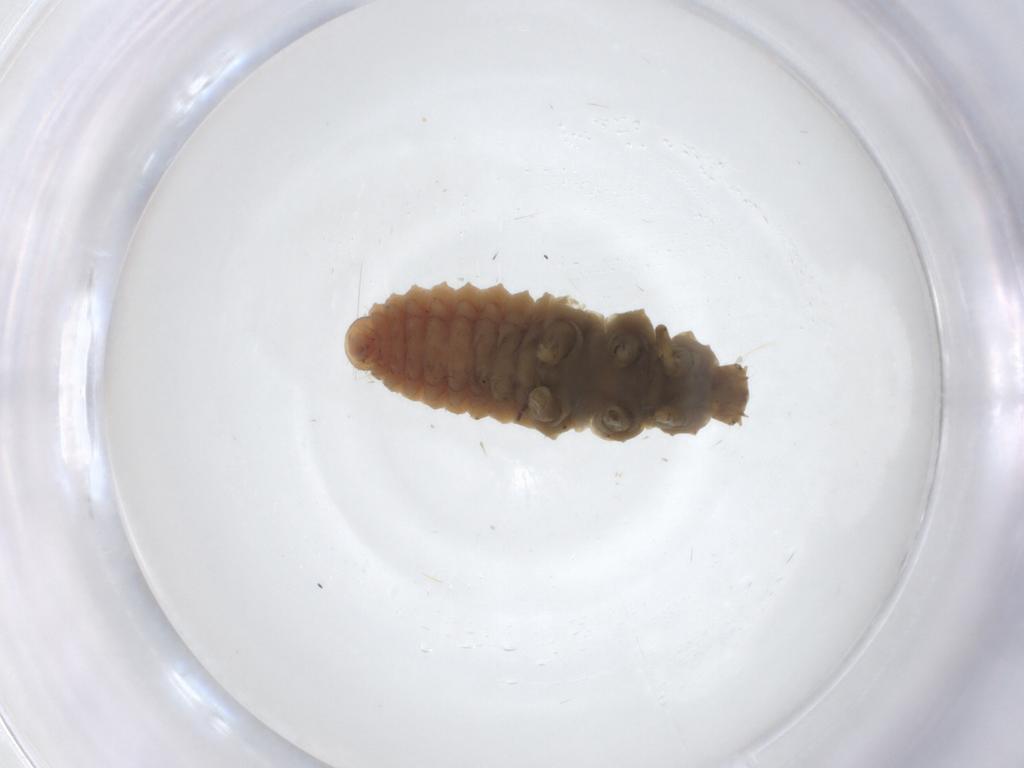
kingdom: Animalia
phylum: Arthropoda
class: Insecta
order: Coleoptera
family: Coccinellidae
